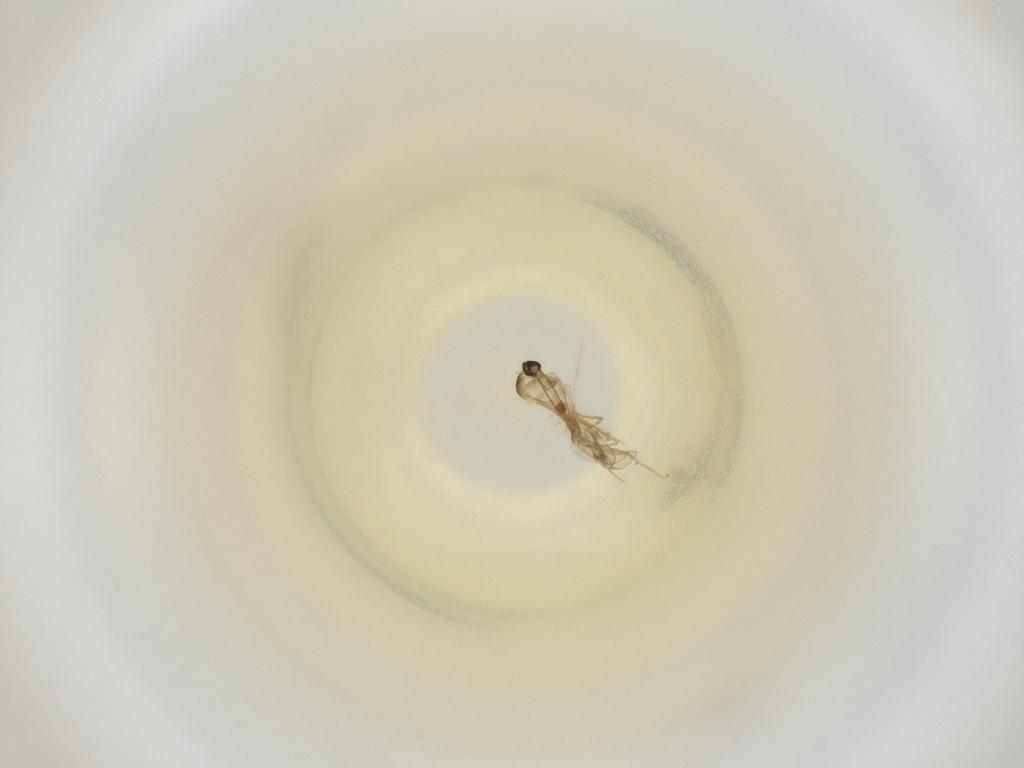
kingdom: Animalia
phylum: Arthropoda
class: Insecta
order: Diptera
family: Cecidomyiidae
